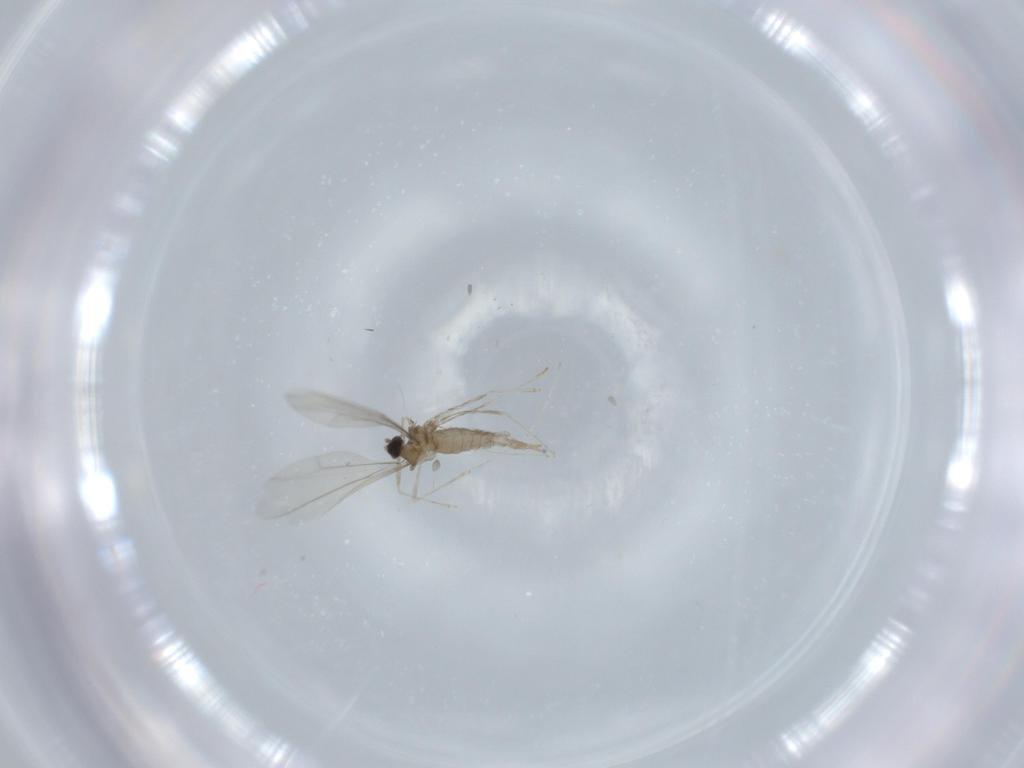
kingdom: Animalia
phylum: Arthropoda
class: Insecta
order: Diptera
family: Cecidomyiidae
